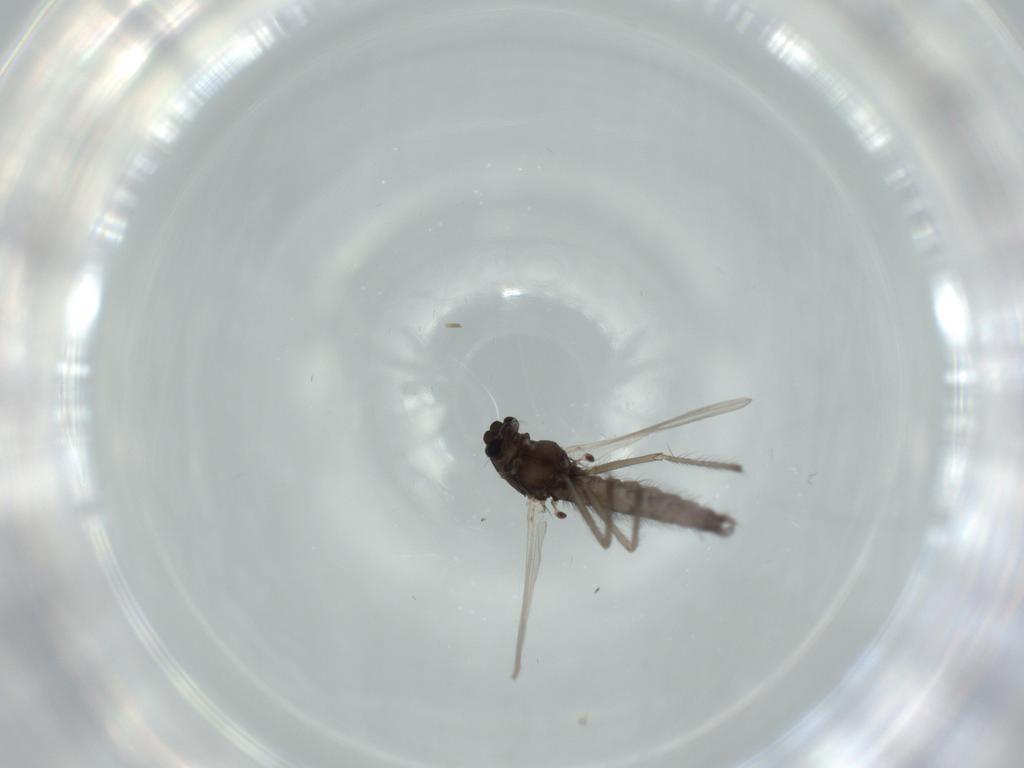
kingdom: Animalia
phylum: Arthropoda
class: Insecta
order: Diptera
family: Chironomidae
